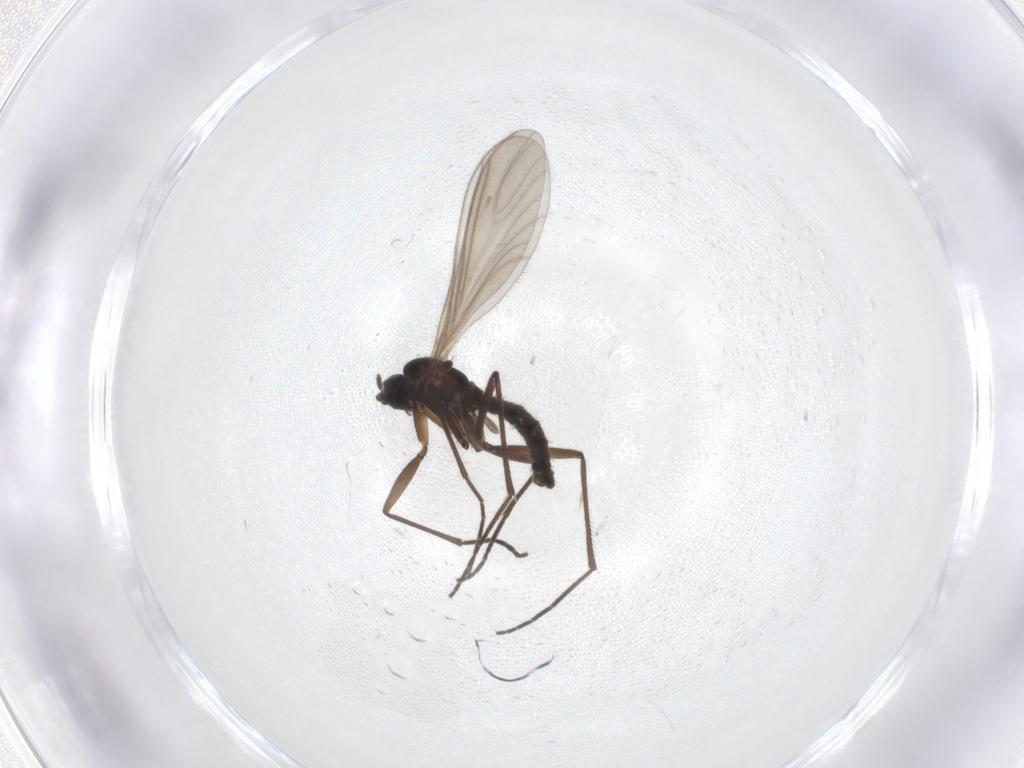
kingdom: Animalia
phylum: Arthropoda
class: Insecta
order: Diptera
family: Sciaridae
